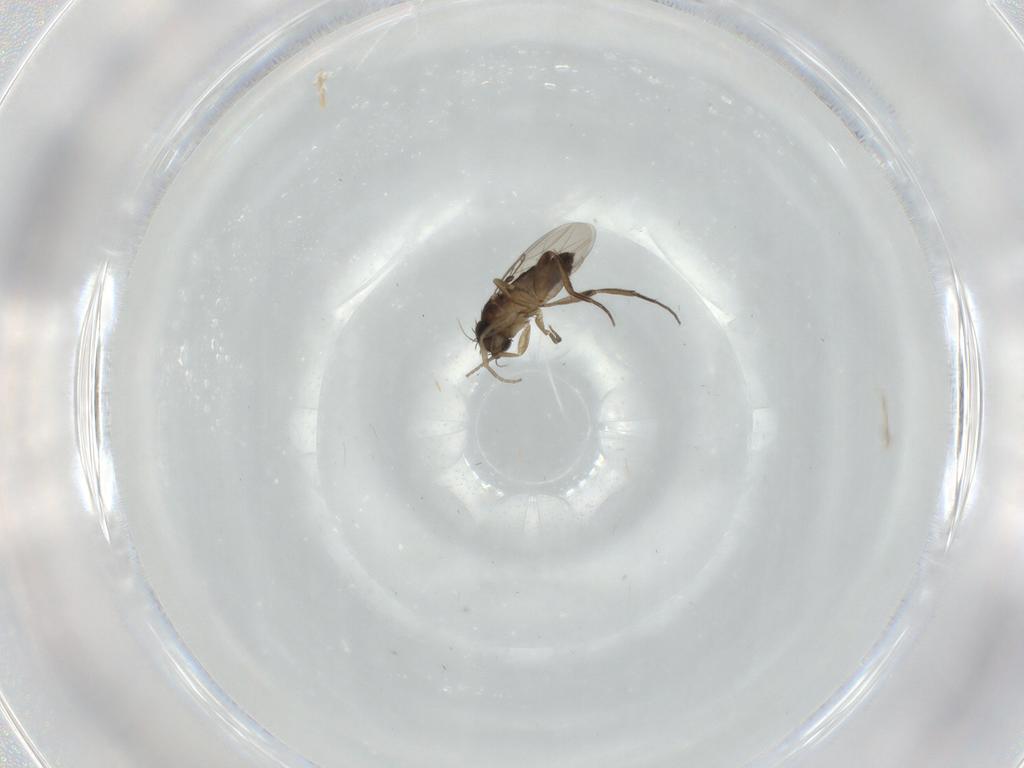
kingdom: Animalia
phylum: Arthropoda
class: Insecta
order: Diptera
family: Phoridae
